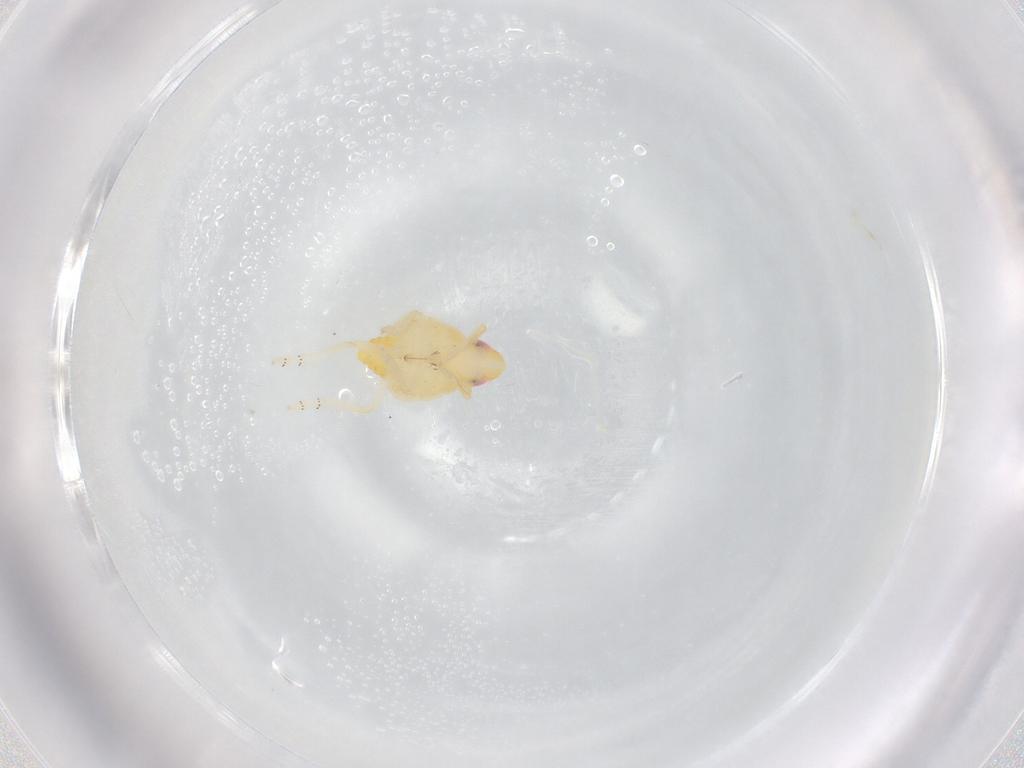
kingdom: Animalia
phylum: Arthropoda
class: Insecta
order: Hemiptera
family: Tropiduchidae
